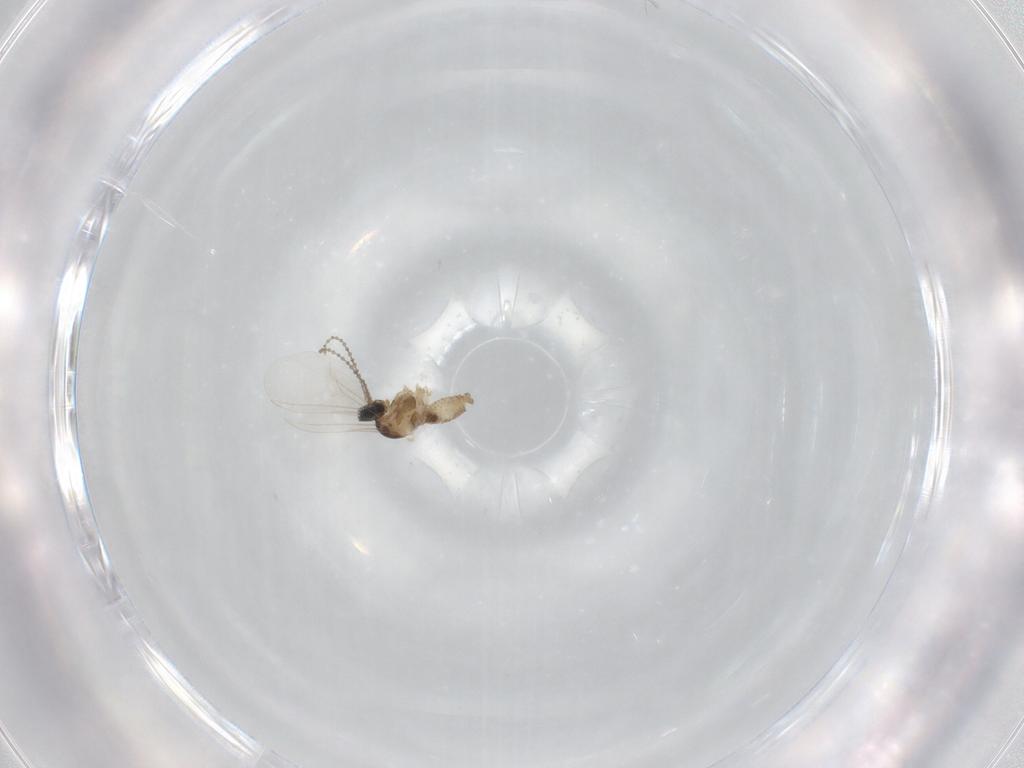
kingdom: Animalia
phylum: Arthropoda
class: Insecta
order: Diptera
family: Cecidomyiidae
